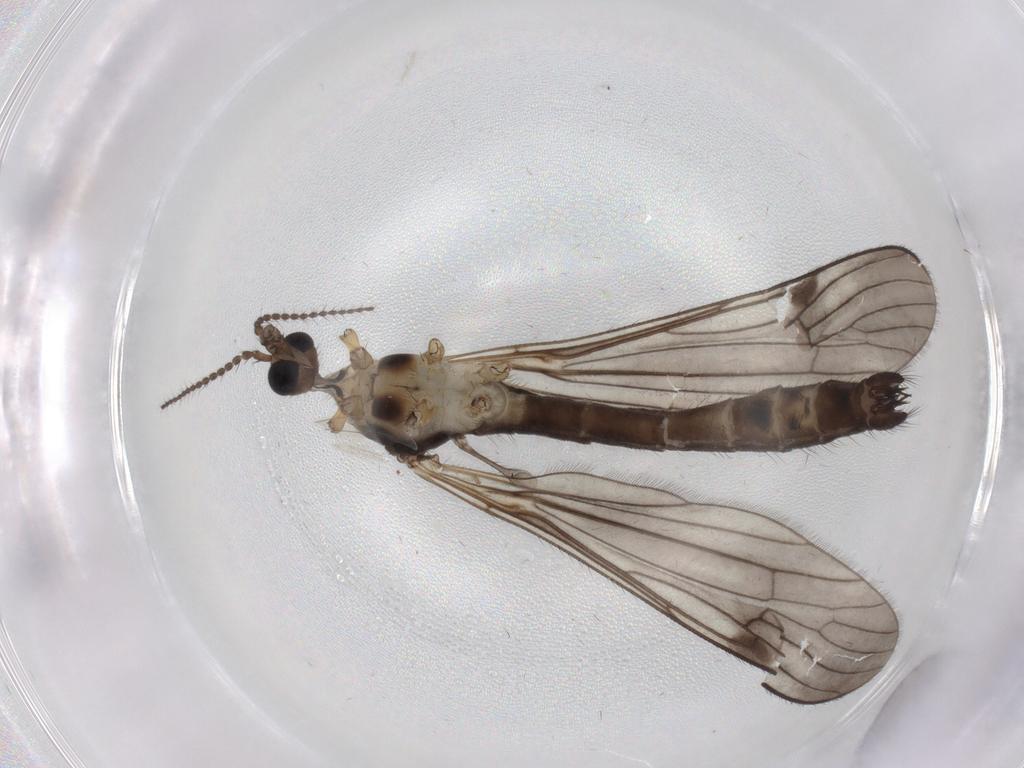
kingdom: Animalia
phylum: Arthropoda
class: Insecta
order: Diptera
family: Limoniidae
